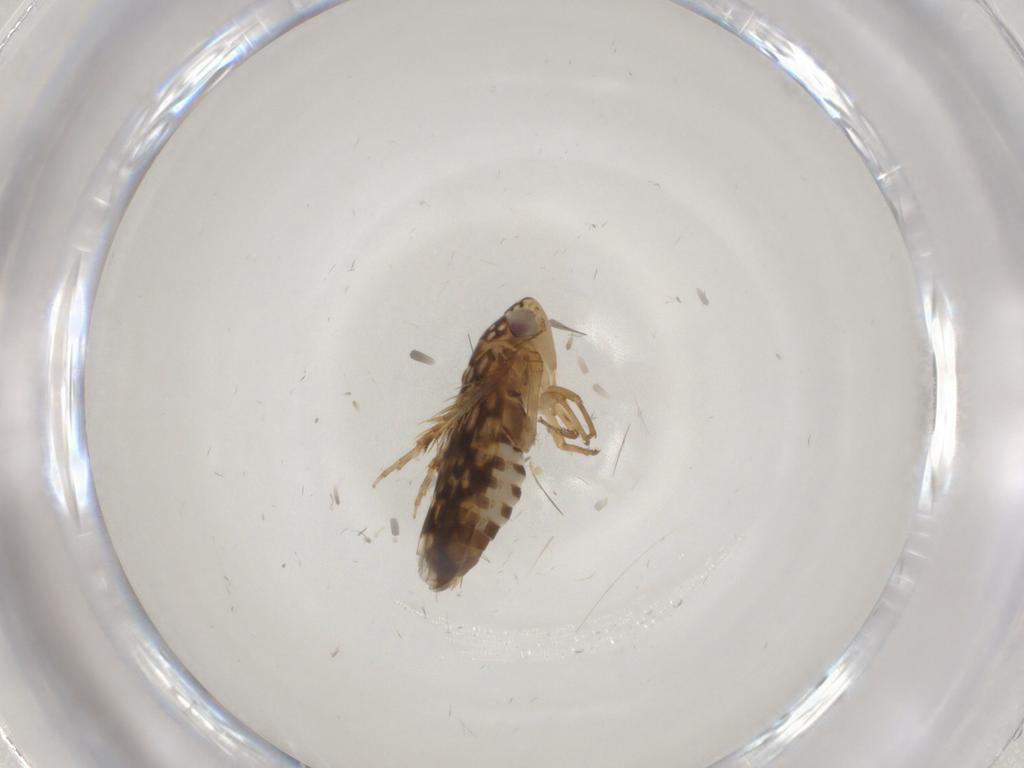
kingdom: Animalia
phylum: Arthropoda
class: Insecta
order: Hemiptera
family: Cicadellidae
